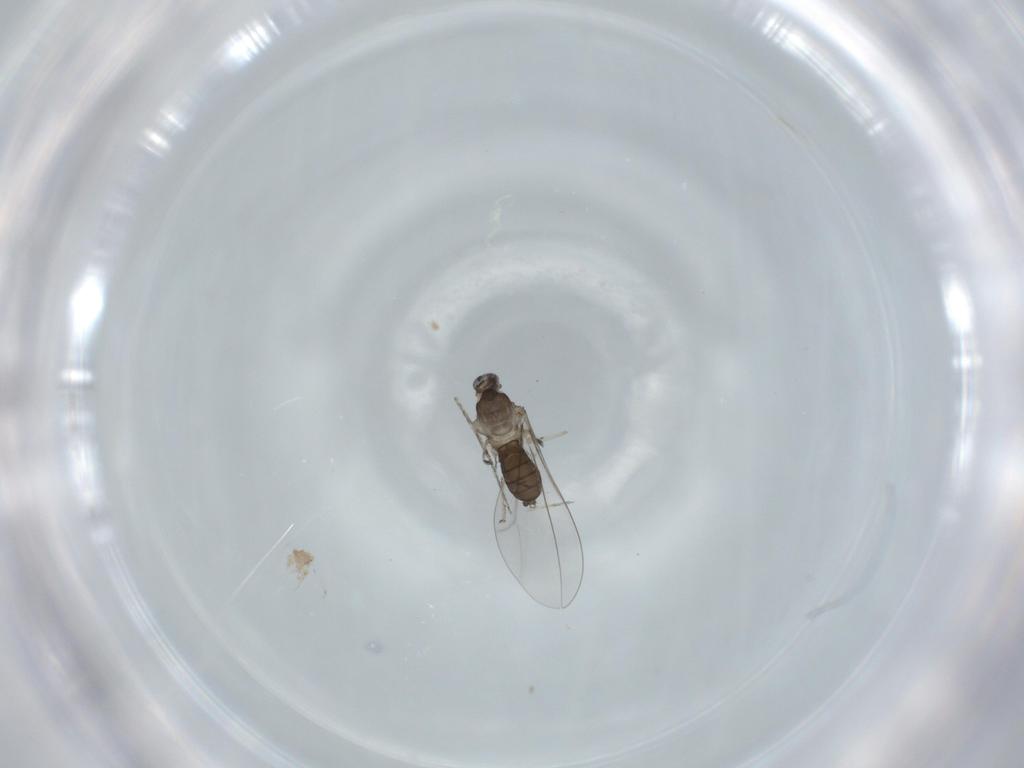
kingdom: Animalia
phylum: Arthropoda
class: Insecta
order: Diptera
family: Cecidomyiidae
